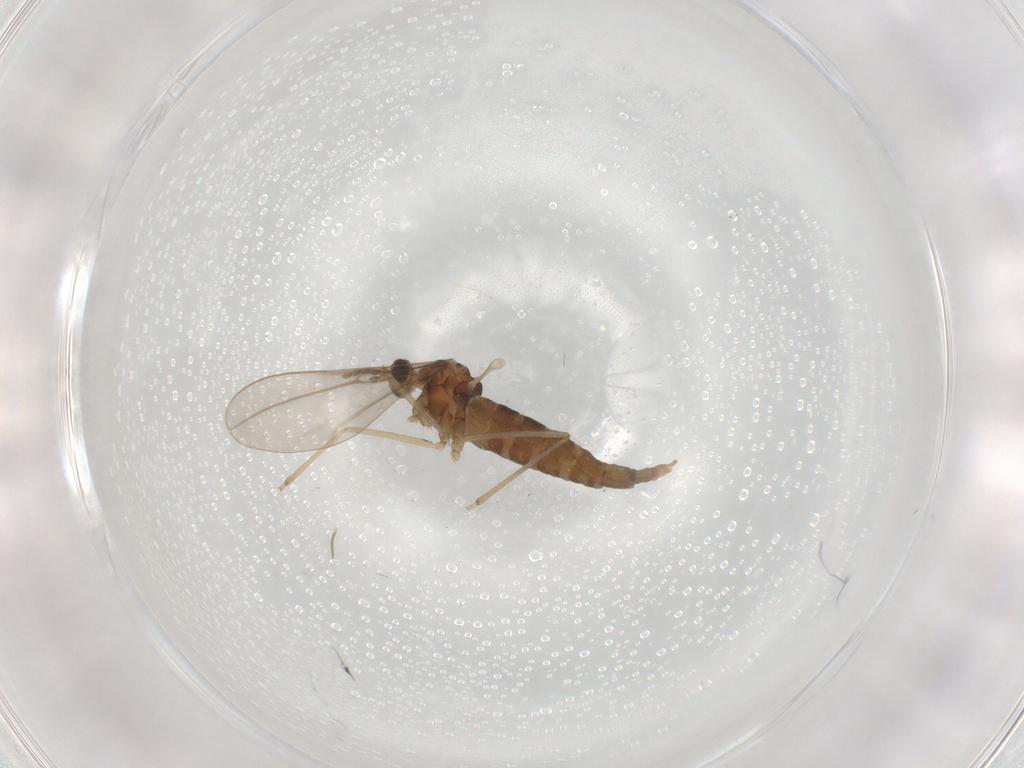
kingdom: Animalia
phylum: Arthropoda
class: Insecta
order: Diptera
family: Cecidomyiidae
